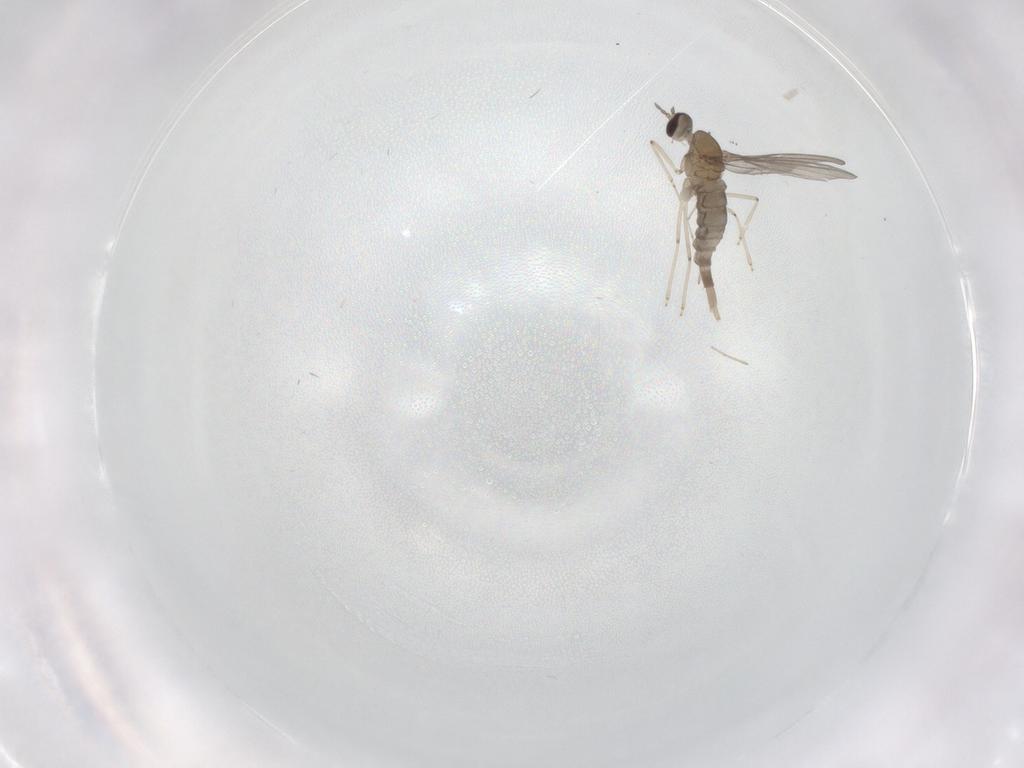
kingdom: Animalia
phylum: Arthropoda
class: Insecta
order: Diptera
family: Cecidomyiidae
